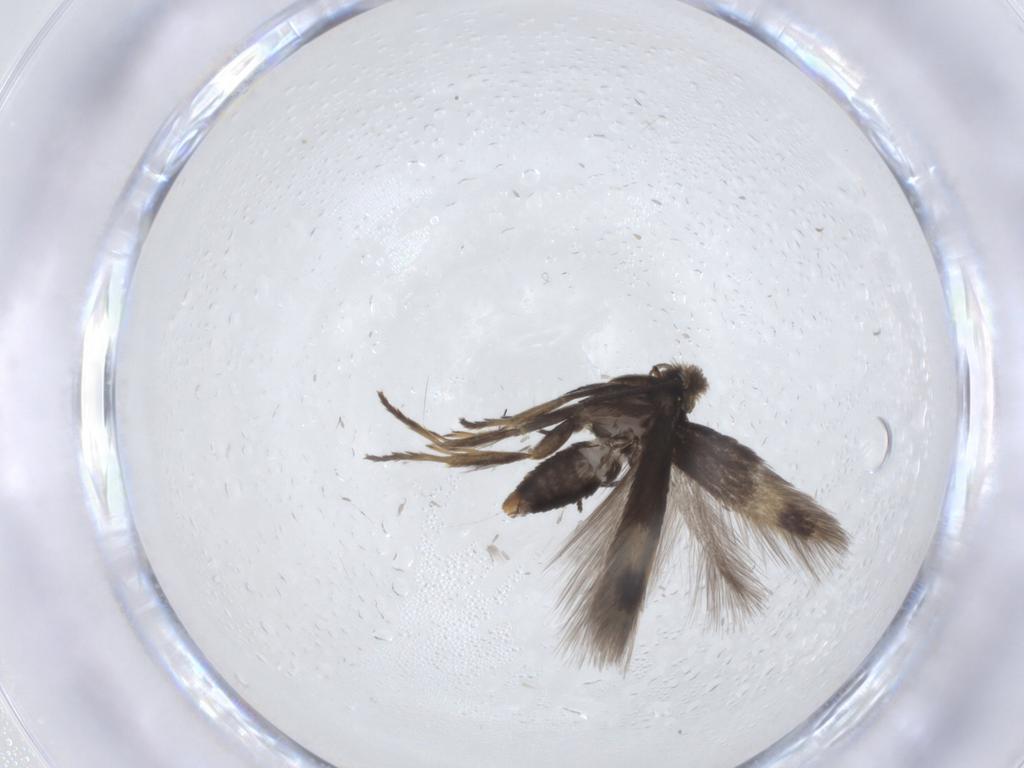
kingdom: Animalia
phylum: Arthropoda
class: Insecta
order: Lepidoptera
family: Nepticulidae
